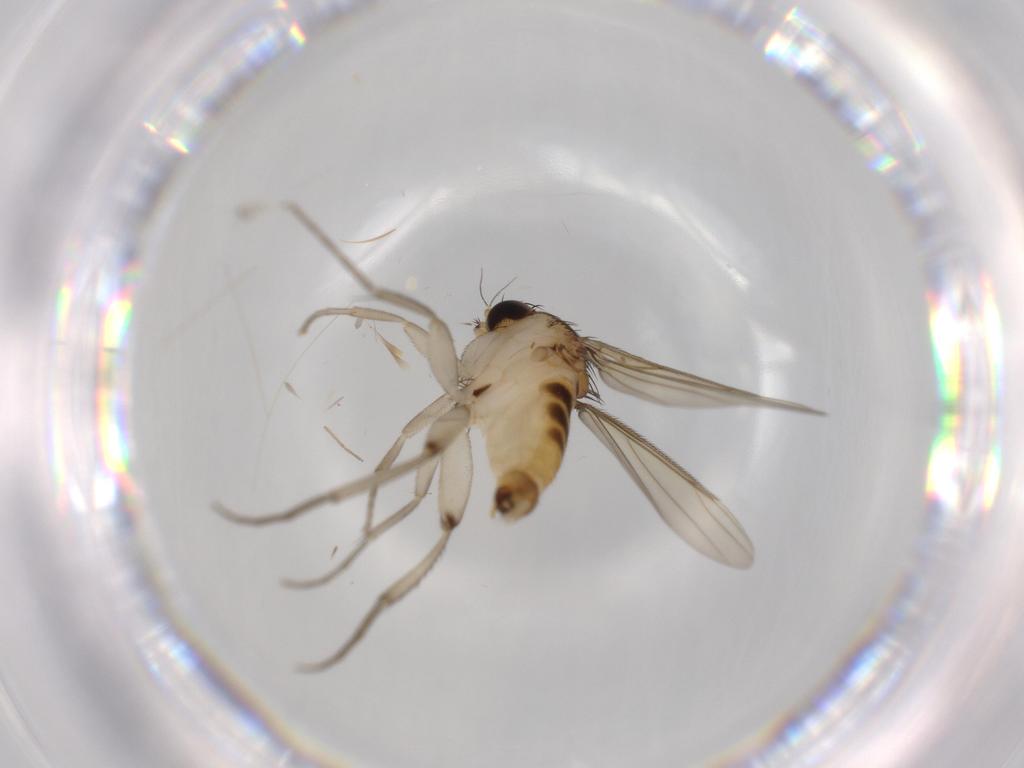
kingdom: Animalia
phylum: Arthropoda
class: Insecta
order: Diptera
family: Phoridae
